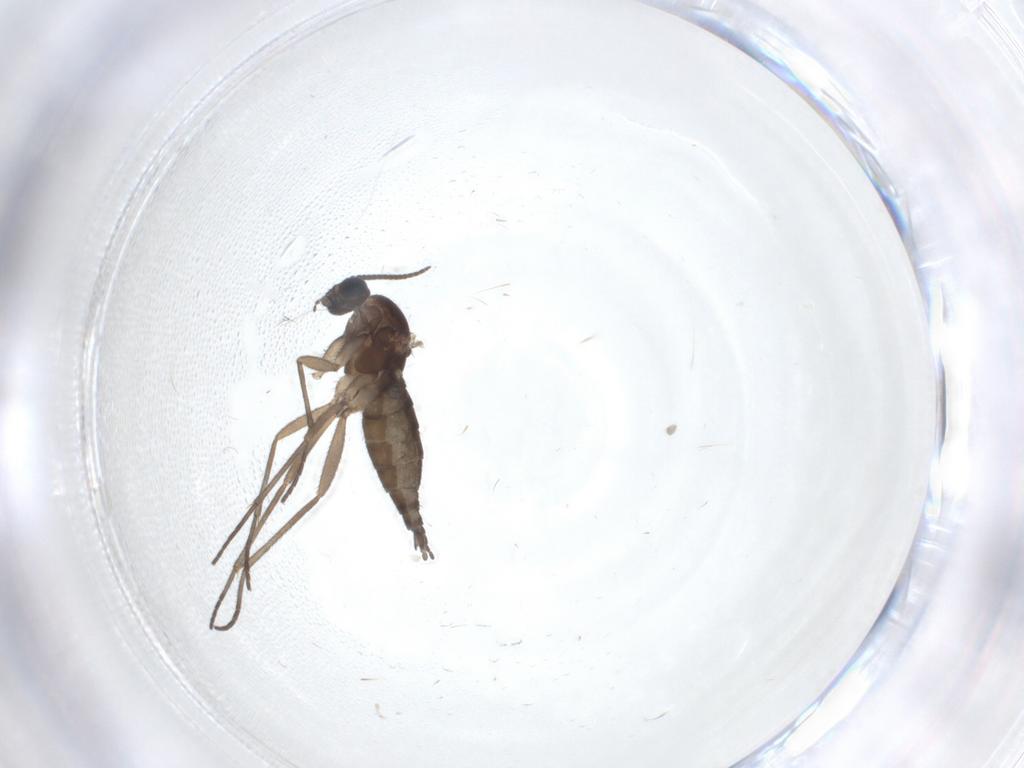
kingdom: Animalia
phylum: Arthropoda
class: Insecta
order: Diptera
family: Sciaridae
